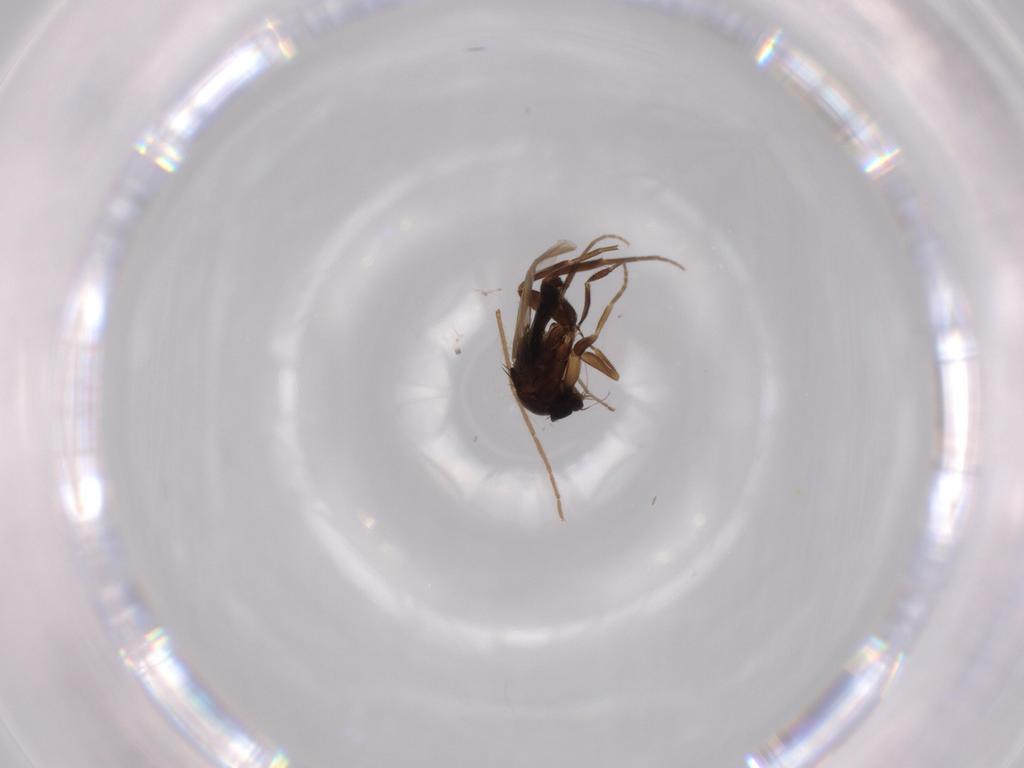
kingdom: Animalia
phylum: Arthropoda
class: Insecta
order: Diptera
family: Phoridae
